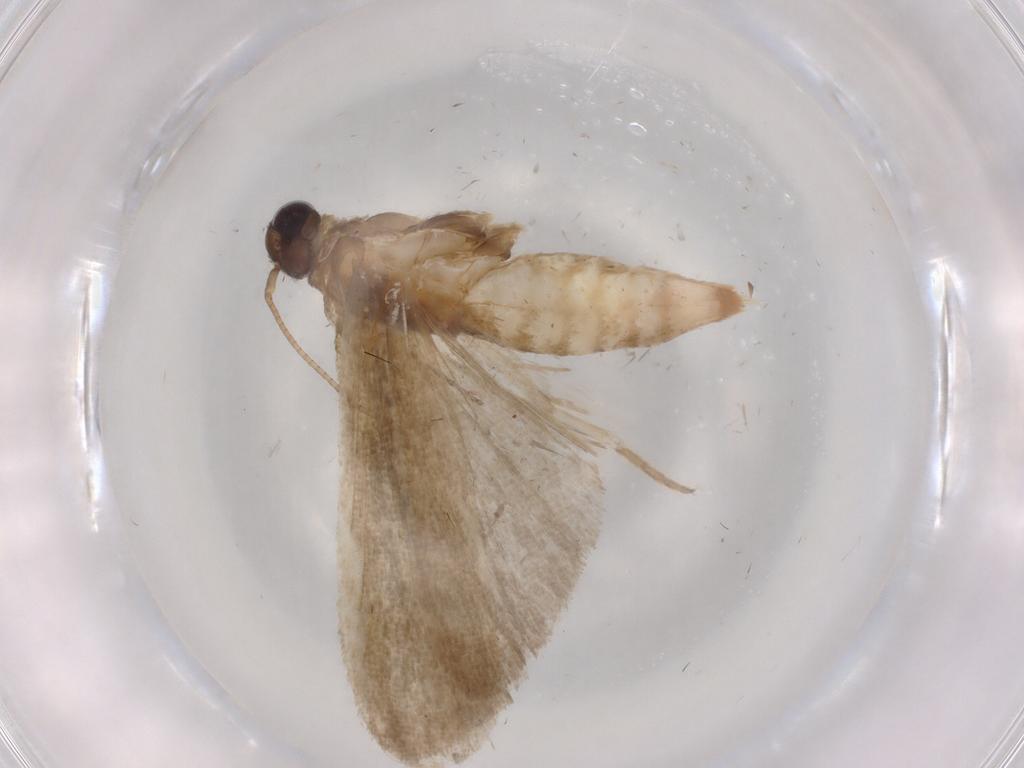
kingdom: Animalia
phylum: Arthropoda
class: Insecta
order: Lepidoptera
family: Noctuidae
